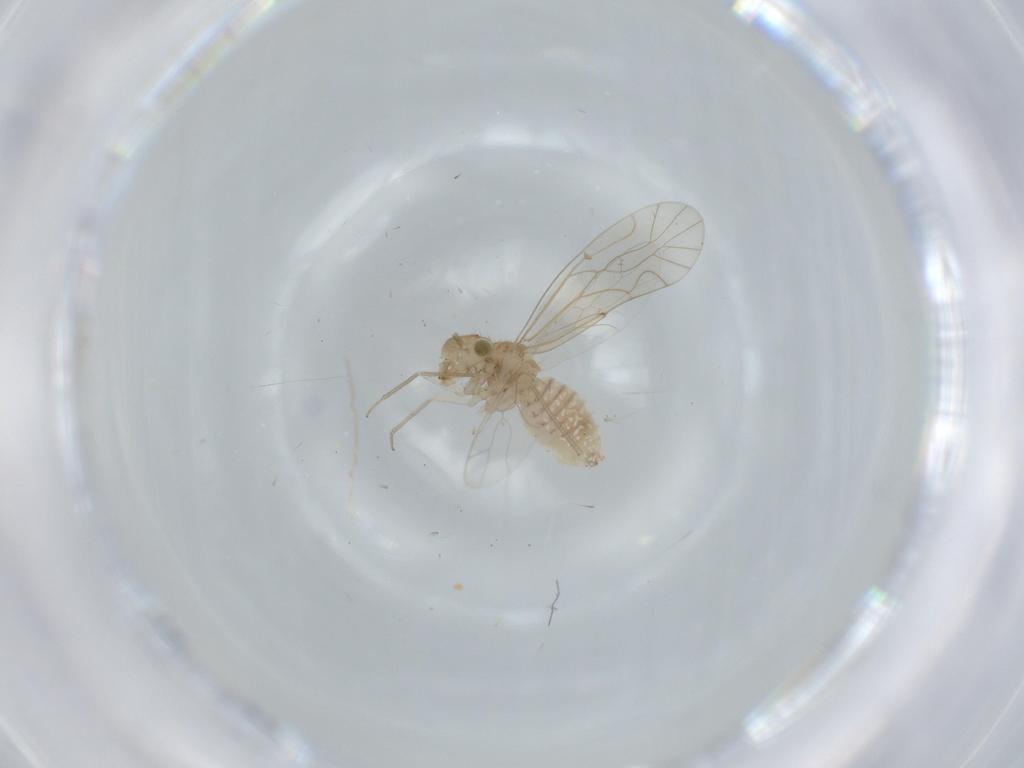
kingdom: Animalia
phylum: Arthropoda
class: Insecta
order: Psocodea
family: Lachesillidae
